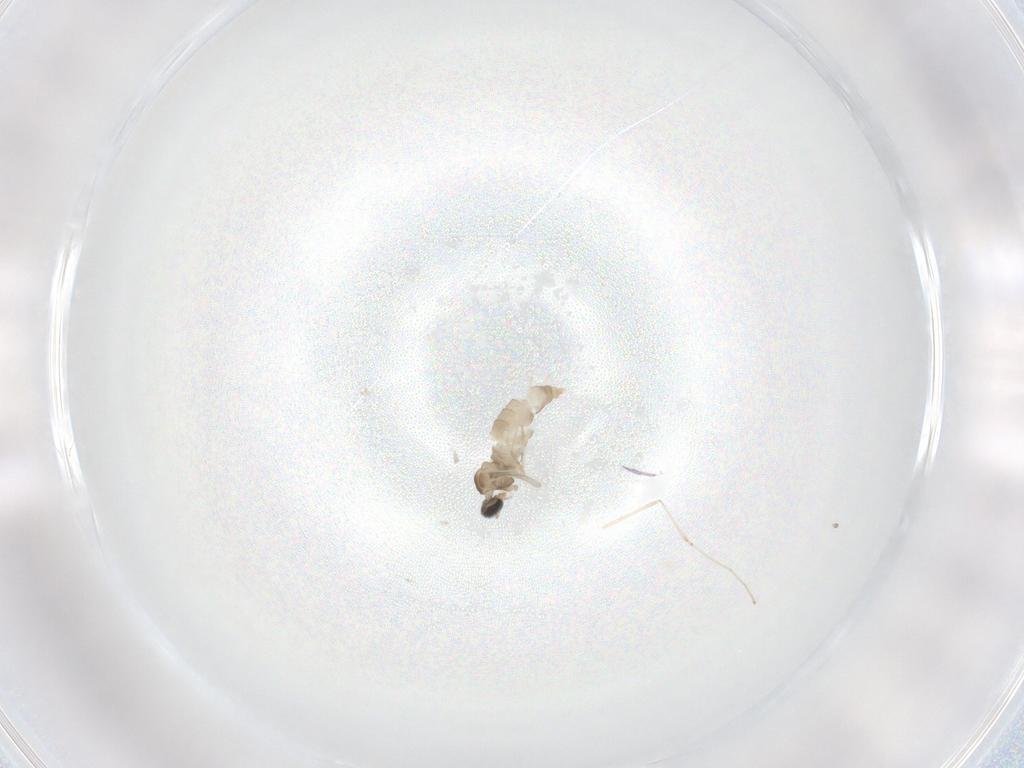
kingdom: Animalia
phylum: Arthropoda
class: Insecta
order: Diptera
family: Cecidomyiidae
